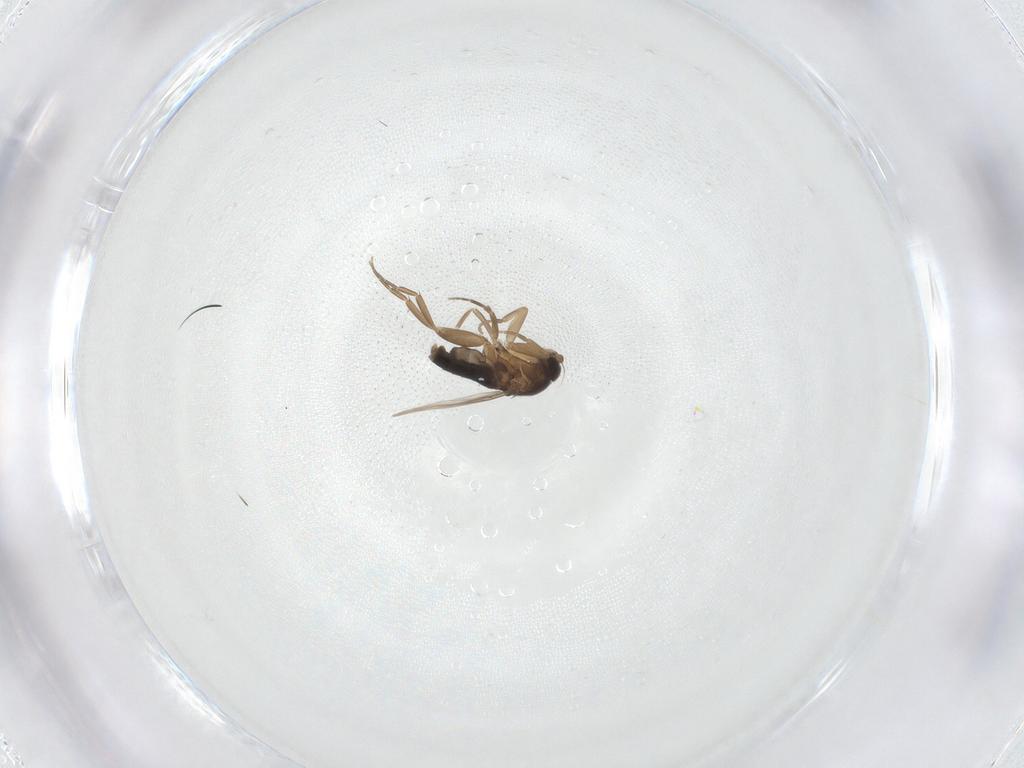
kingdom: Animalia
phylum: Arthropoda
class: Insecta
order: Diptera
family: Phoridae
